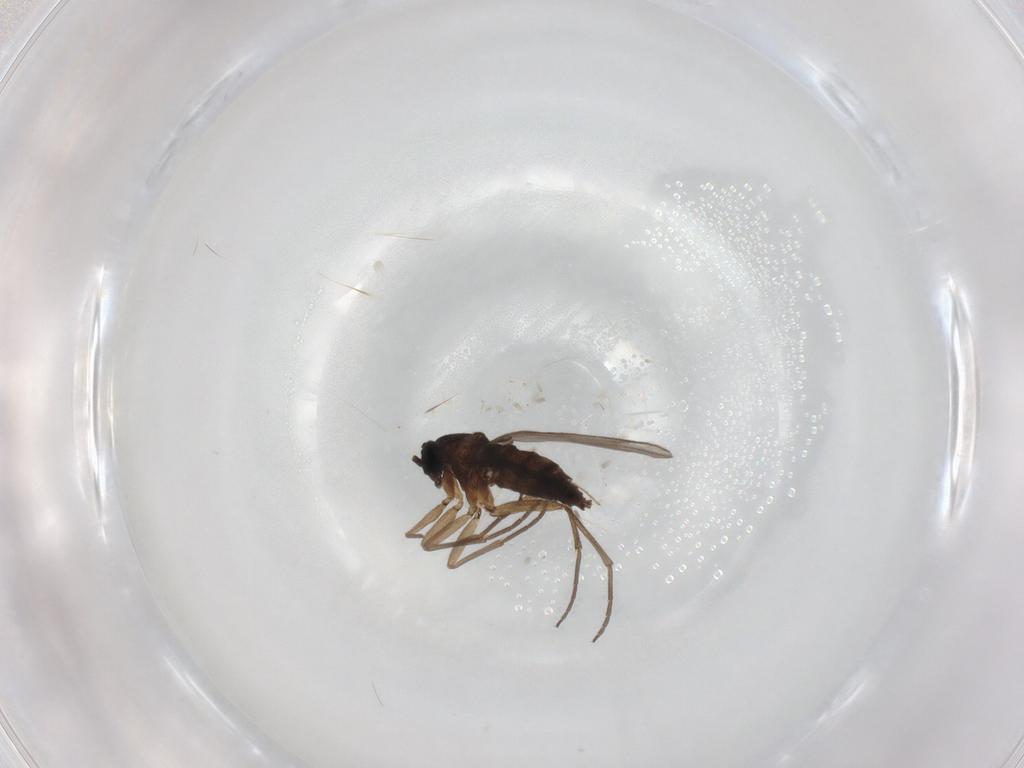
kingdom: Animalia
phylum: Arthropoda
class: Insecta
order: Diptera
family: Sciaridae
